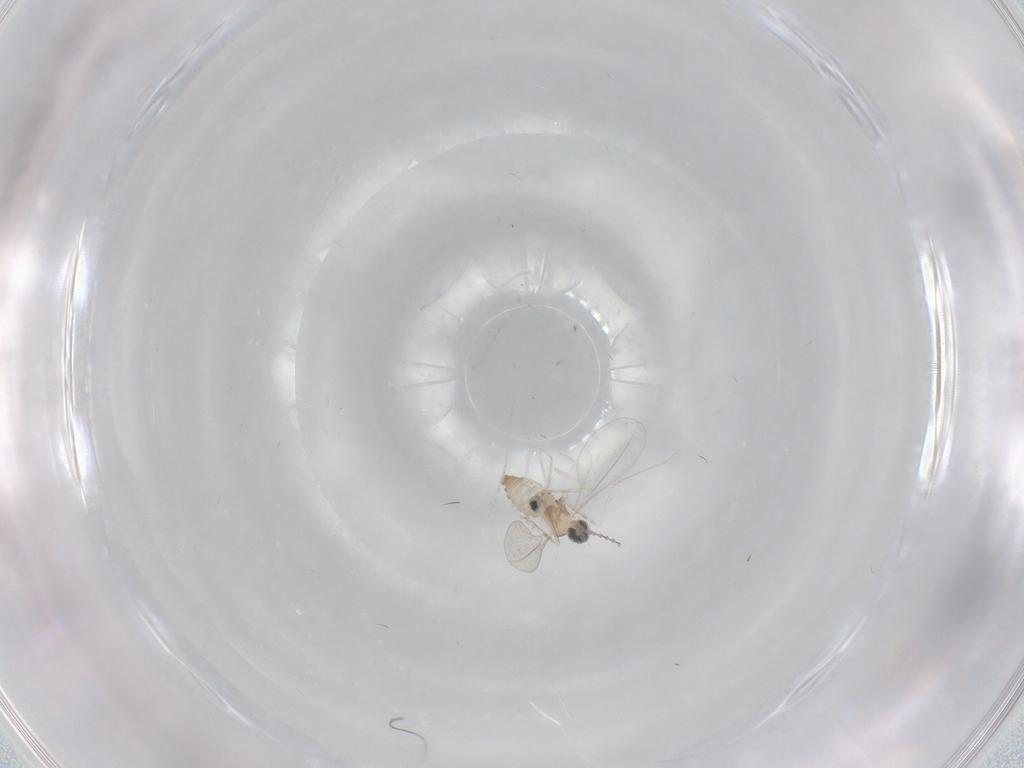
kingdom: Animalia
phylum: Arthropoda
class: Insecta
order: Diptera
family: Cecidomyiidae
